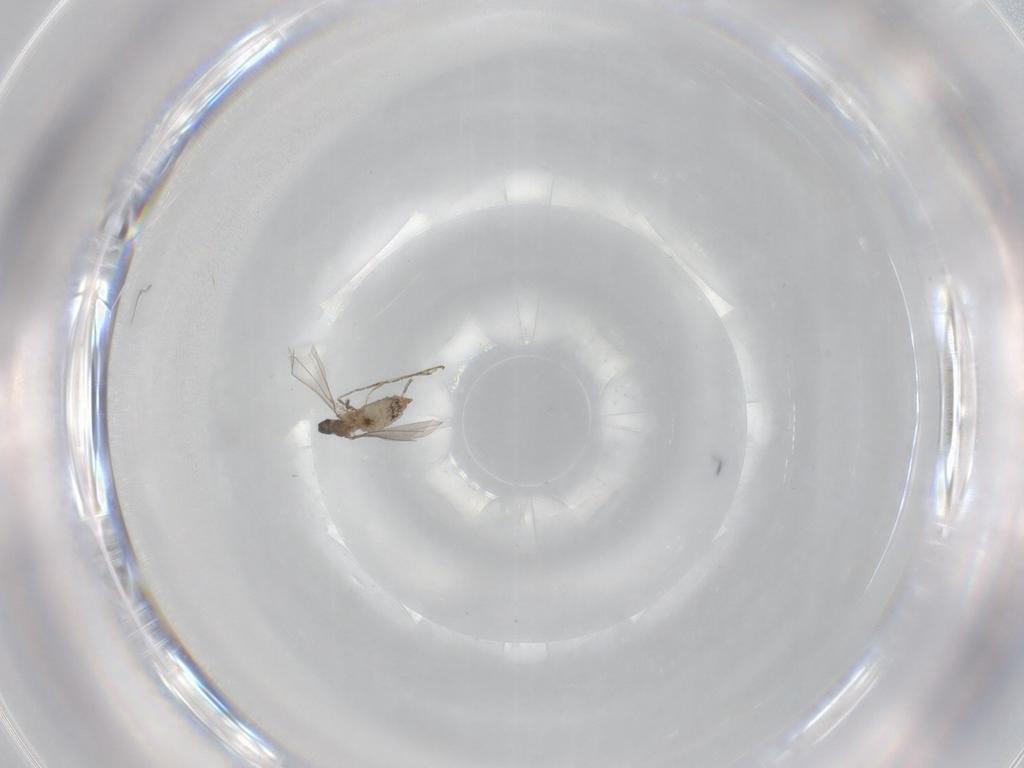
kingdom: Animalia
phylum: Arthropoda
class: Insecta
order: Diptera
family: Cecidomyiidae
